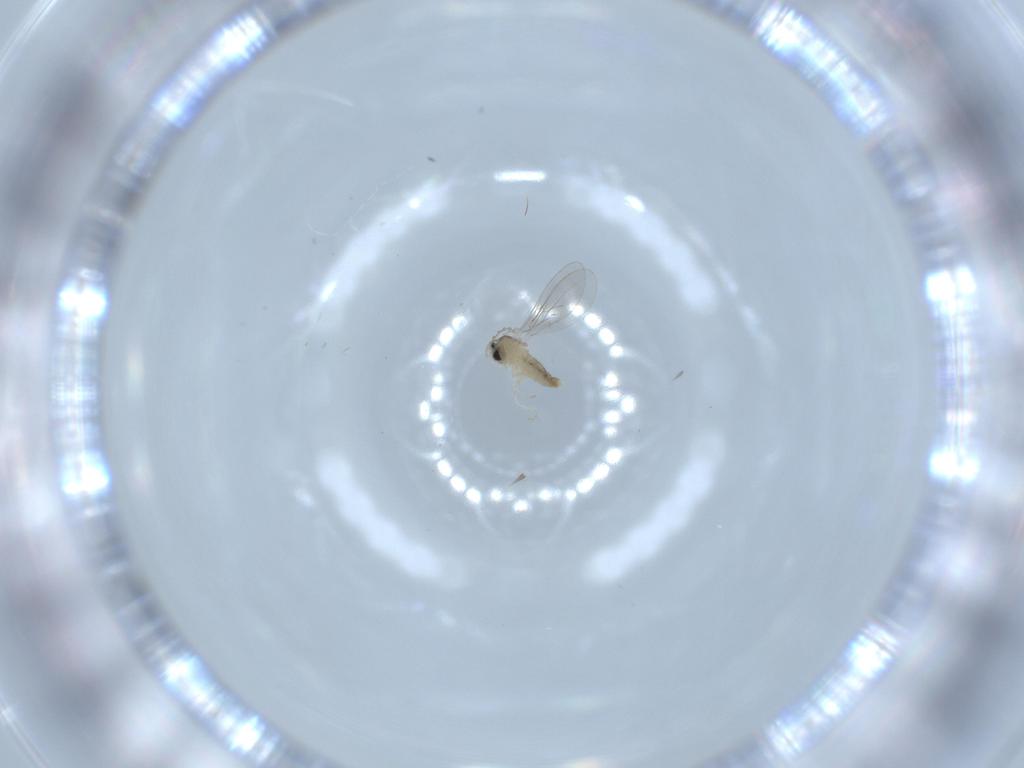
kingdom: Animalia
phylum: Arthropoda
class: Insecta
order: Diptera
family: Cecidomyiidae
